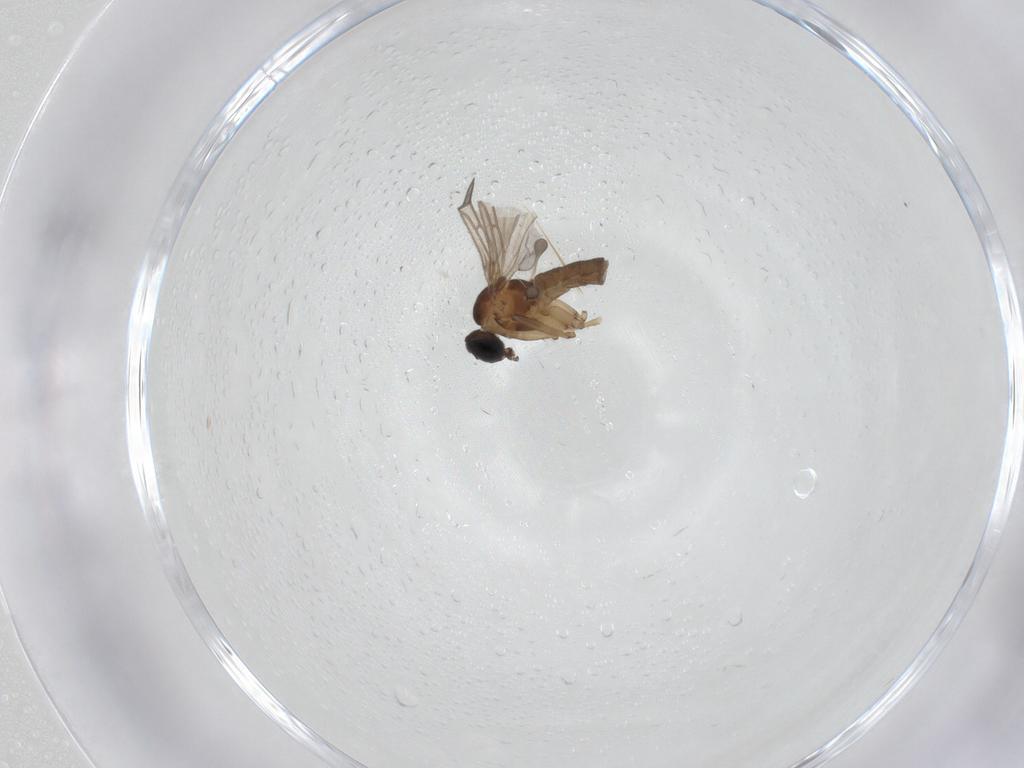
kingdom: Animalia
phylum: Arthropoda
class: Insecta
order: Diptera
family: Sciaridae
